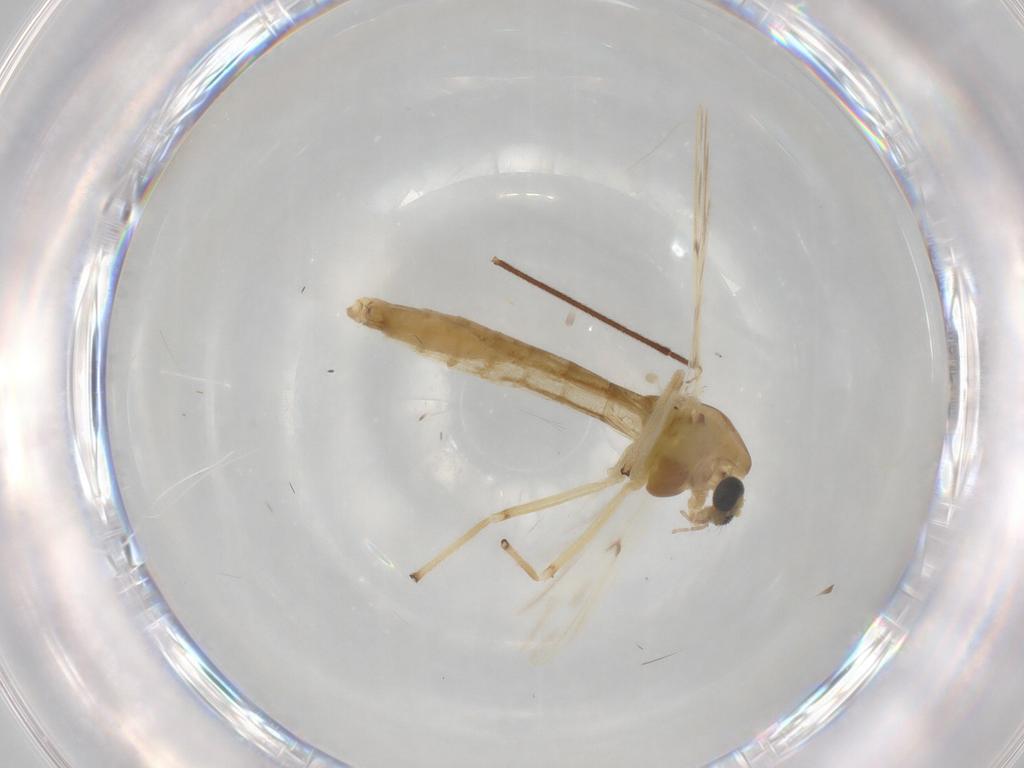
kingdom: Animalia
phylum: Arthropoda
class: Insecta
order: Diptera
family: Chironomidae
